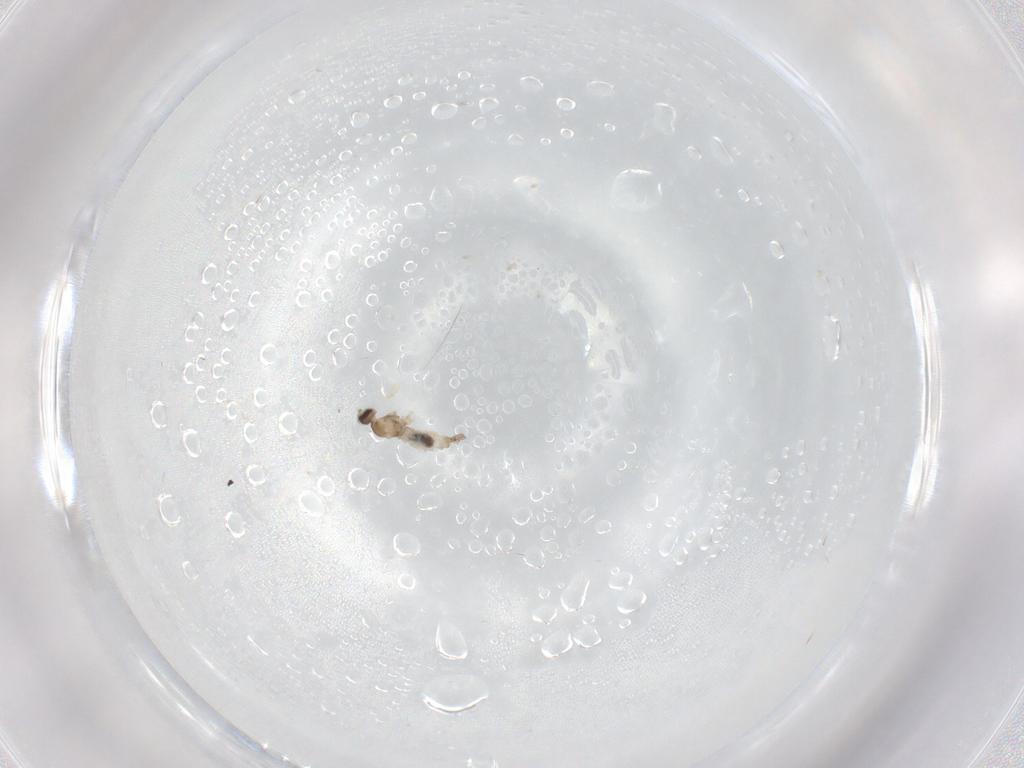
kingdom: Animalia
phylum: Arthropoda
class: Insecta
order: Diptera
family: Cecidomyiidae
